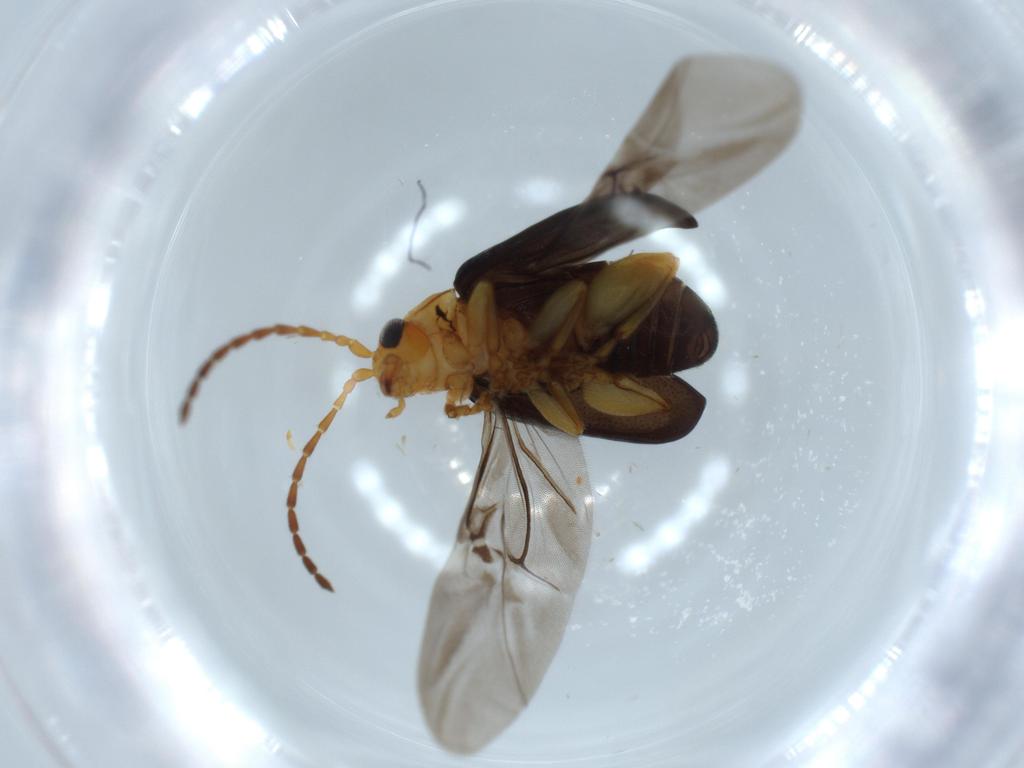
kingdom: Animalia
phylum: Arthropoda
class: Insecta
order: Coleoptera
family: Chrysomelidae
